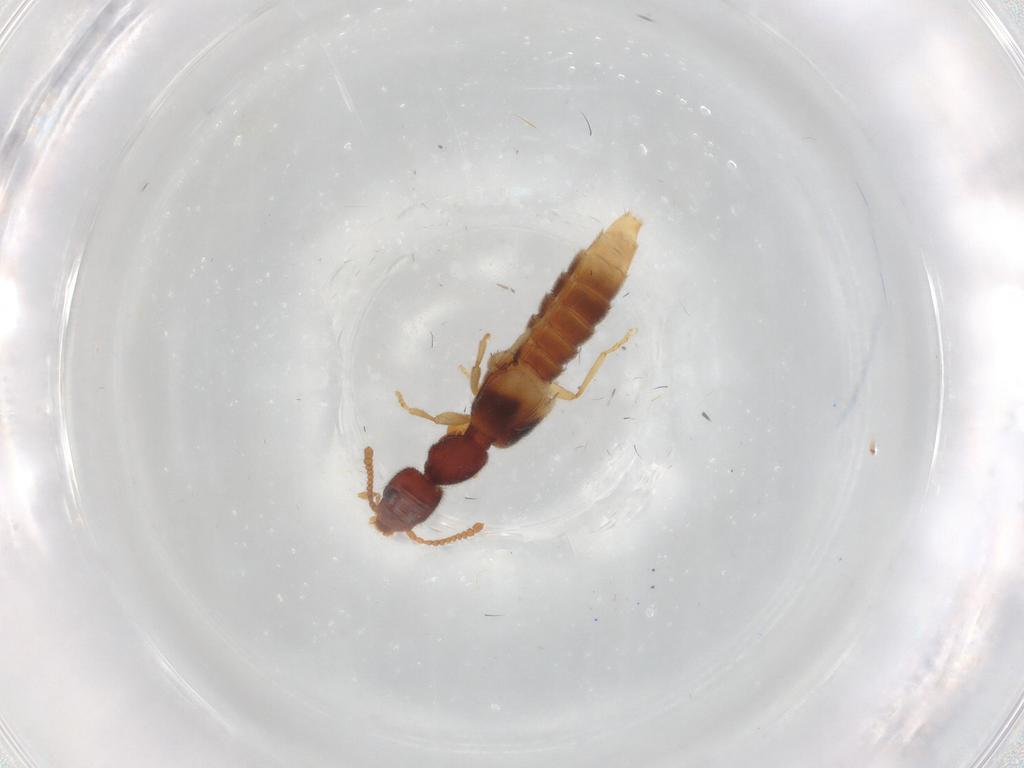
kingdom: Animalia
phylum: Arthropoda
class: Insecta
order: Coleoptera
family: Staphylinidae
